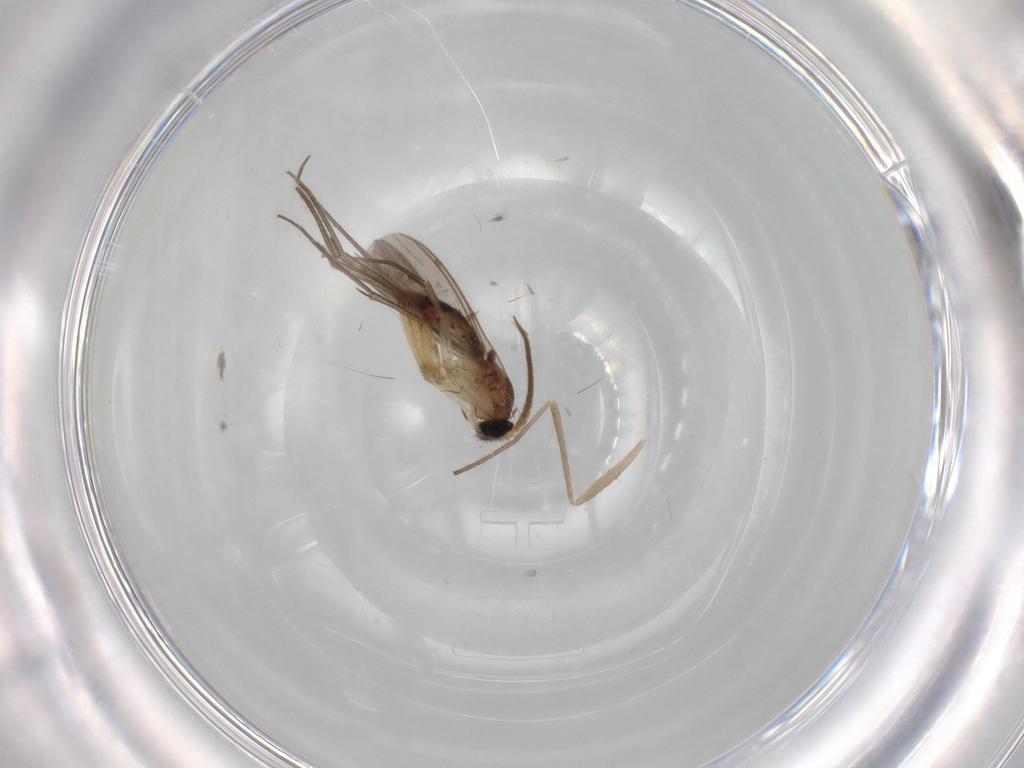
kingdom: Animalia
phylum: Arthropoda
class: Insecta
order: Diptera
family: Mycetophilidae
